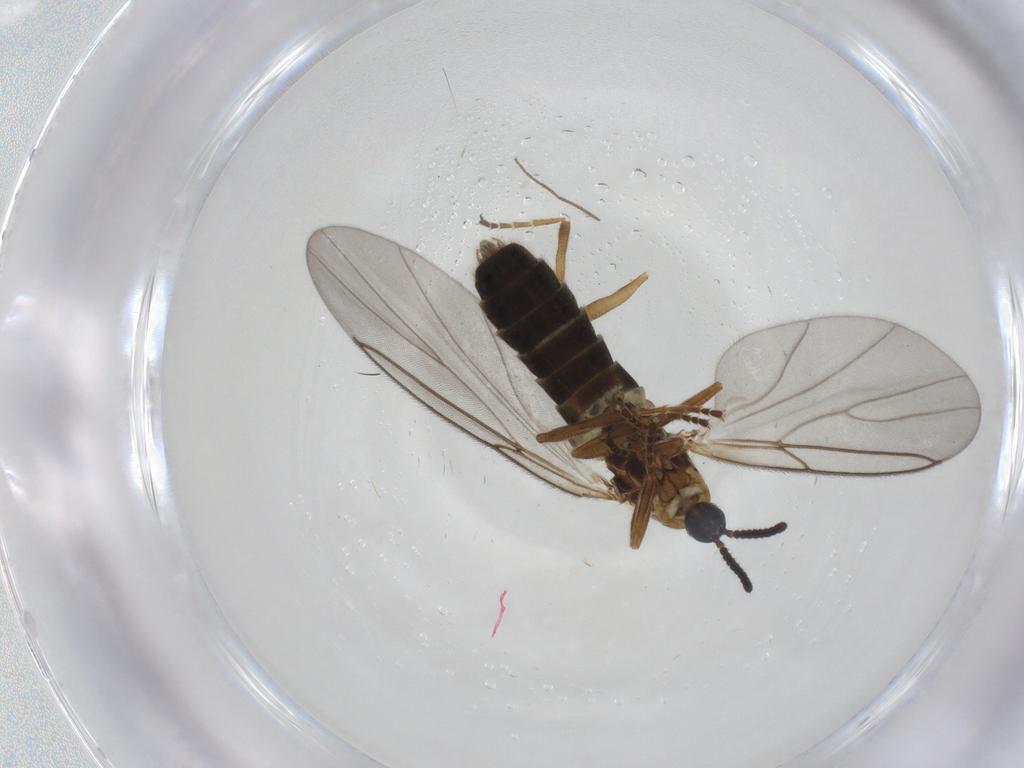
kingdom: Animalia
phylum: Arthropoda
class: Insecta
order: Diptera
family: Scatopsidae
